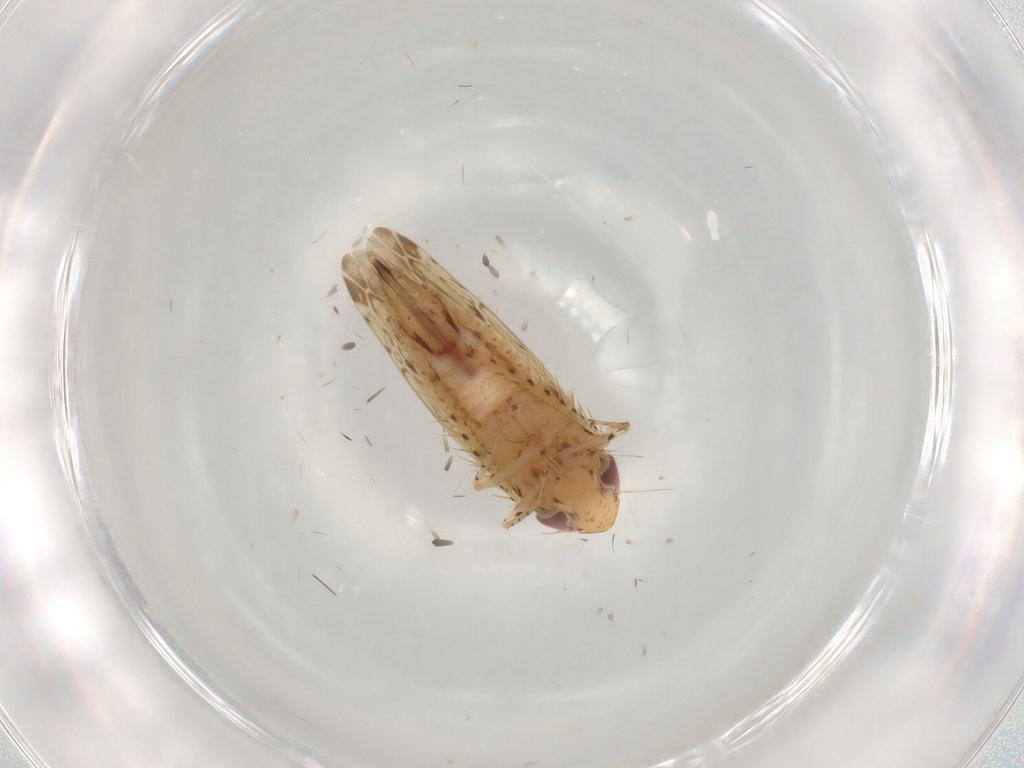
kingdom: Animalia
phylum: Arthropoda
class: Insecta
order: Hemiptera
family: Cicadellidae
